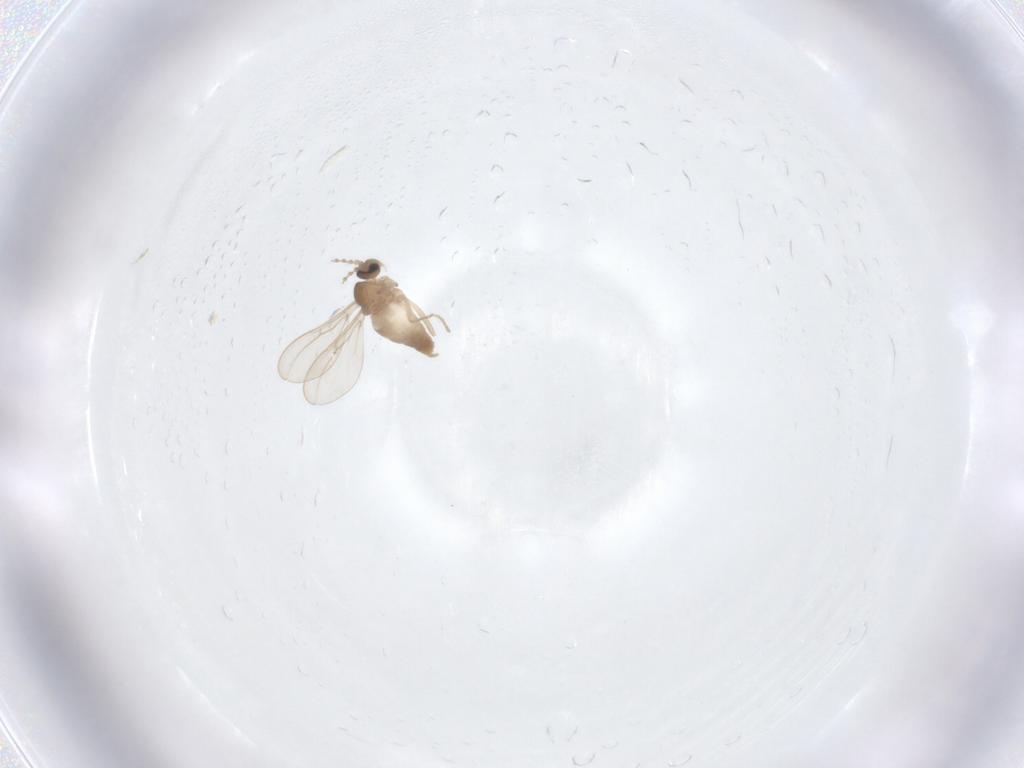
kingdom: Animalia
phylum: Arthropoda
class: Insecta
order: Diptera
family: Cecidomyiidae
